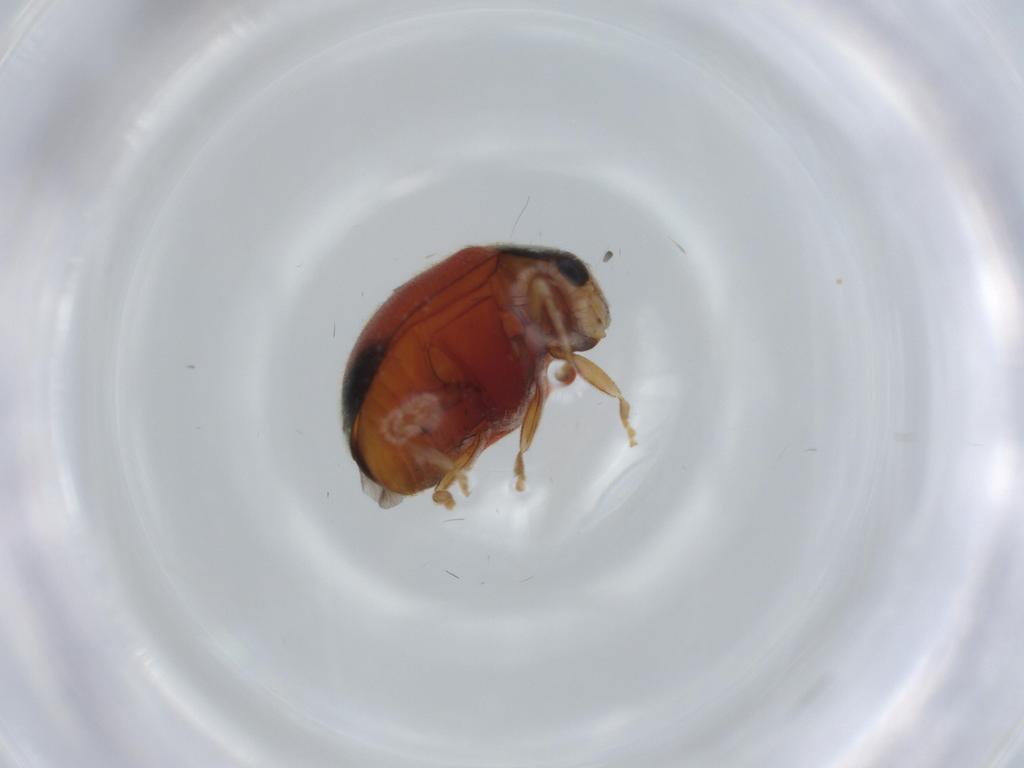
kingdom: Animalia
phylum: Arthropoda
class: Insecta
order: Coleoptera
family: Coccinellidae
